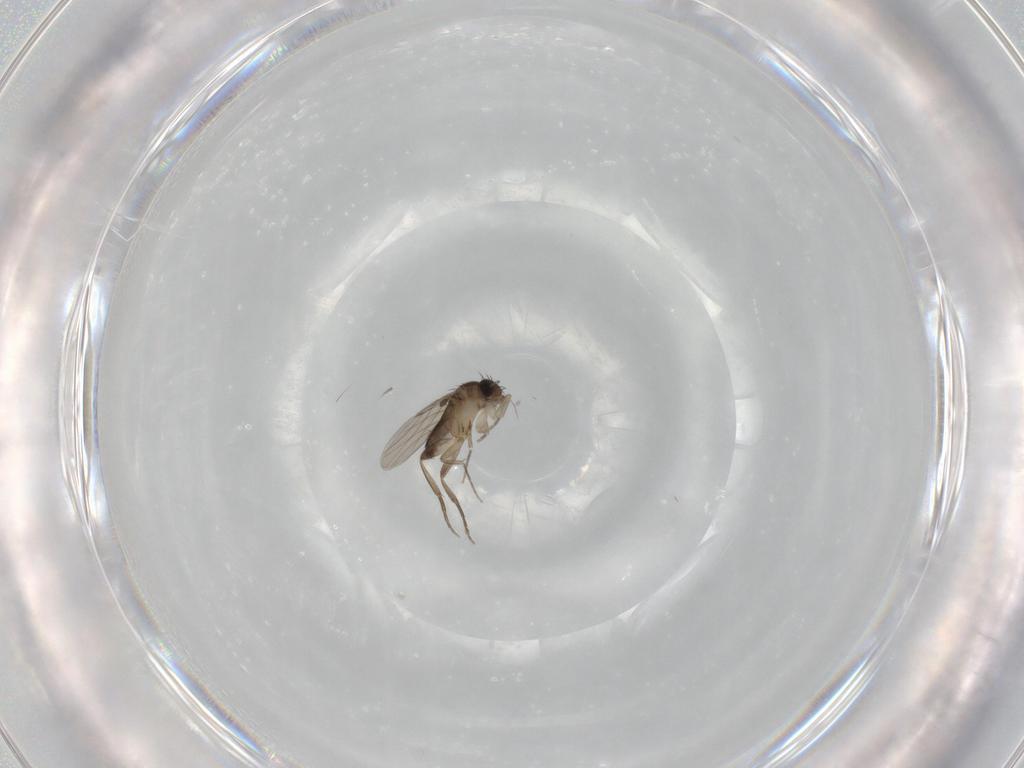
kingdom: Animalia
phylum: Arthropoda
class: Insecta
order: Diptera
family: Phoridae
